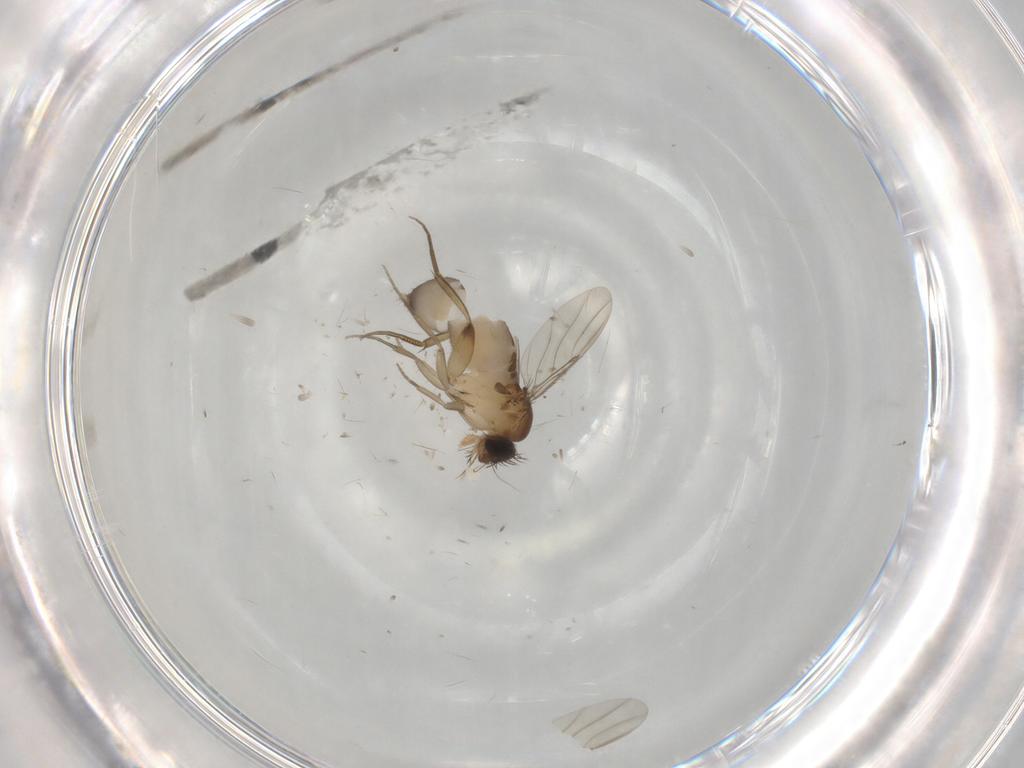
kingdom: Animalia
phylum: Arthropoda
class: Insecta
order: Diptera
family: Phoridae
